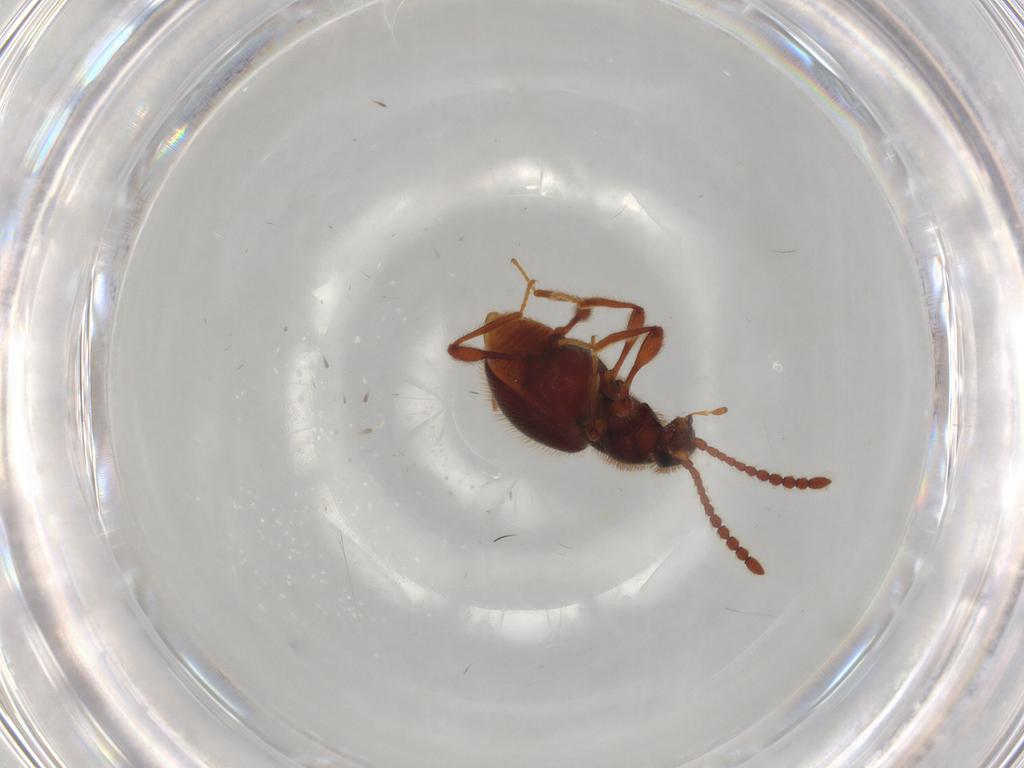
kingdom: Animalia
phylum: Arthropoda
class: Insecta
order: Coleoptera
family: Staphylinidae
